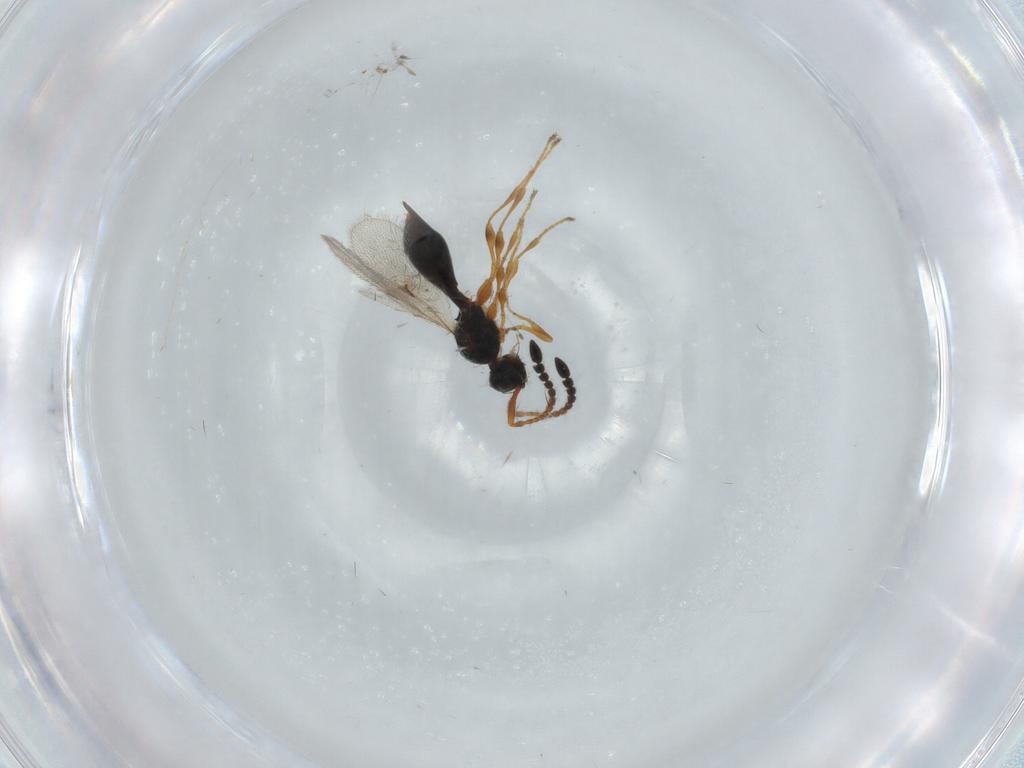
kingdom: Animalia
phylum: Arthropoda
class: Insecta
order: Hymenoptera
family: Diapriidae
